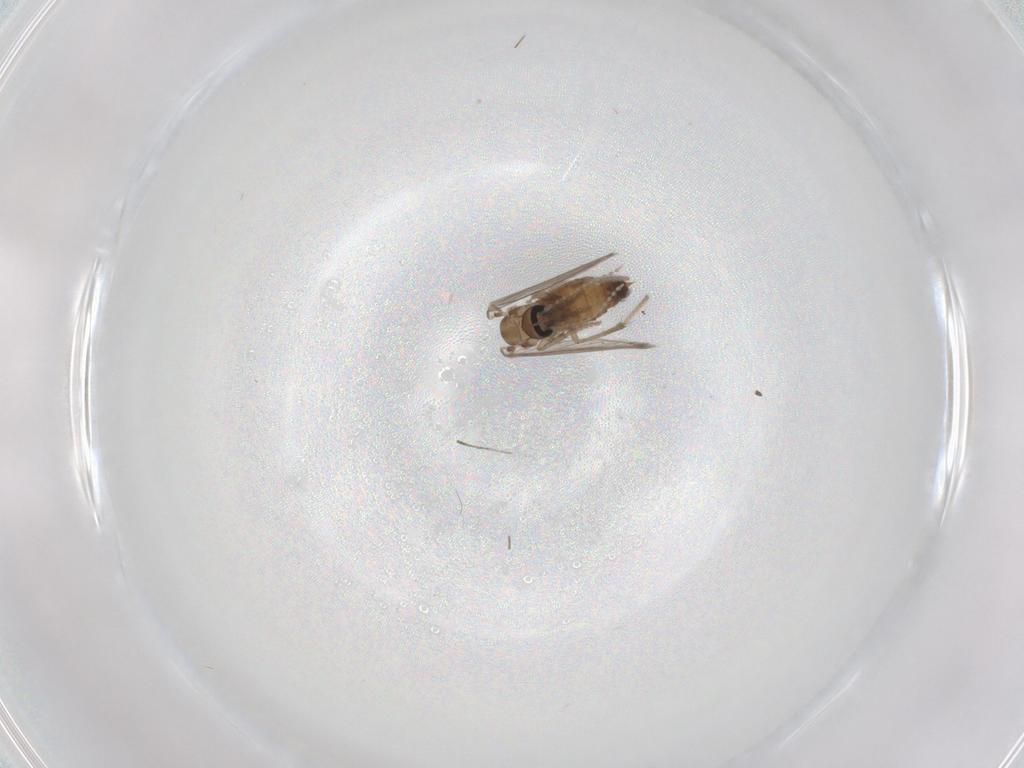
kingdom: Animalia
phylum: Arthropoda
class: Insecta
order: Diptera
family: Psychodidae
